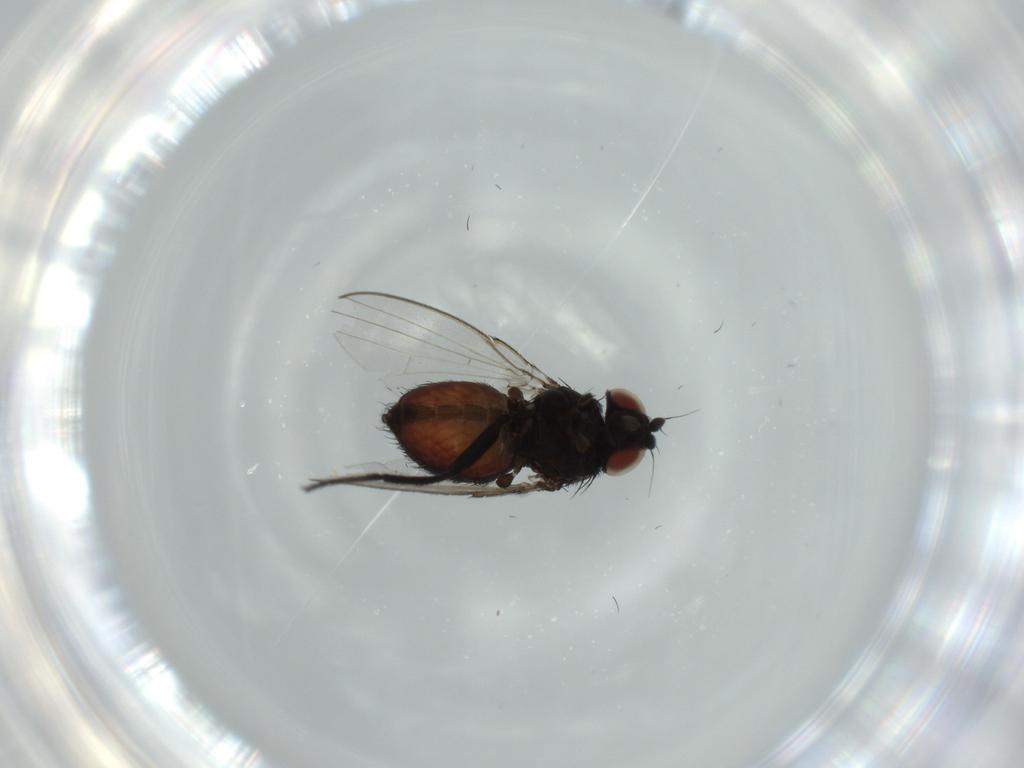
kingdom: Animalia
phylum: Arthropoda
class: Insecta
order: Diptera
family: Milichiidae
